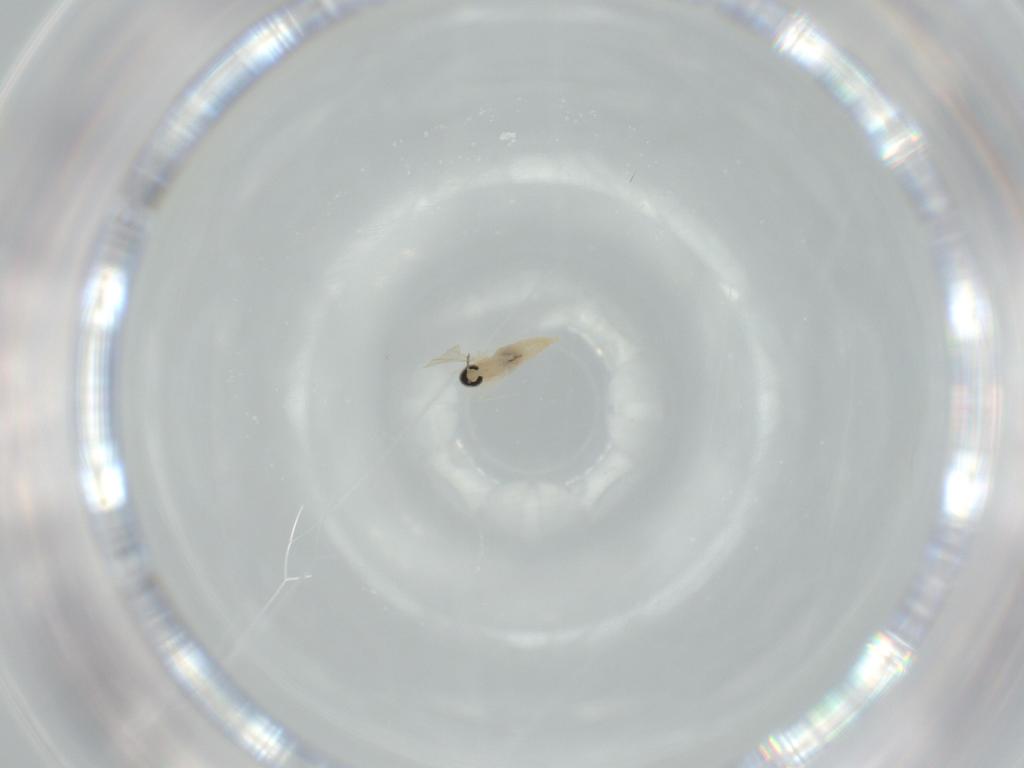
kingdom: Animalia
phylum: Arthropoda
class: Insecta
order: Diptera
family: Cecidomyiidae
